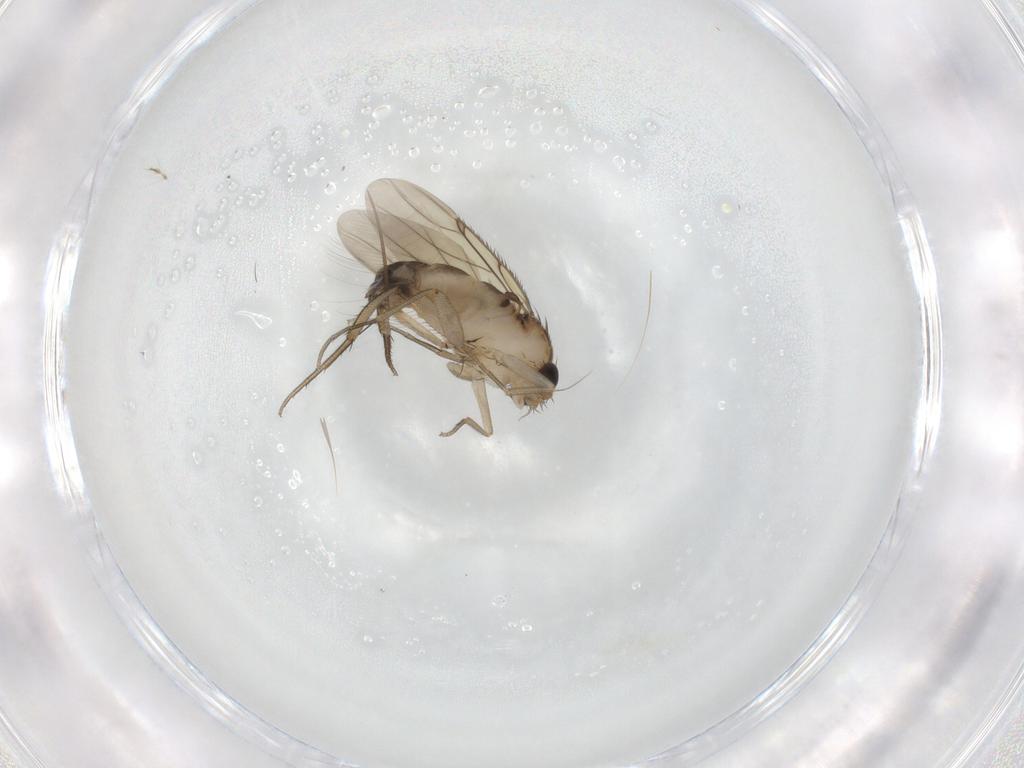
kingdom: Animalia
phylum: Arthropoda
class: Insecta
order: Diptera
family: Phoridae
